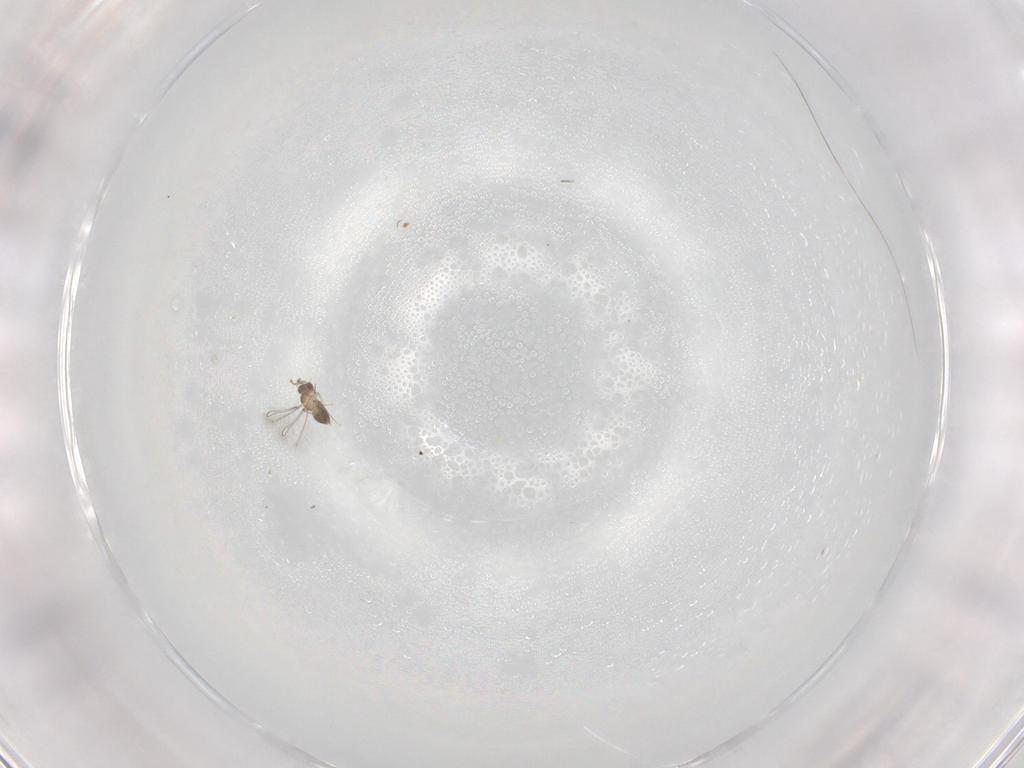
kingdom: Animalia
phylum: Arthropoda
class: Insecta
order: Hymenoptera
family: Mymaridae
